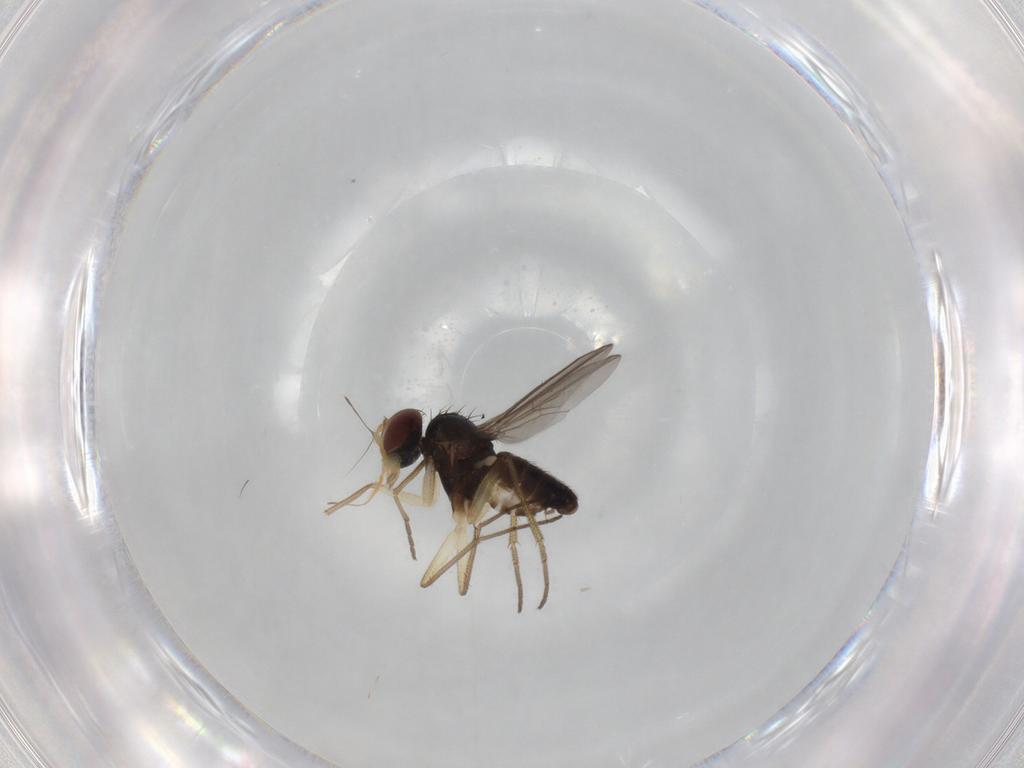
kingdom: Animalia
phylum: Arthropoda
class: Insecta
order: Diptera
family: Dolichopodidae
